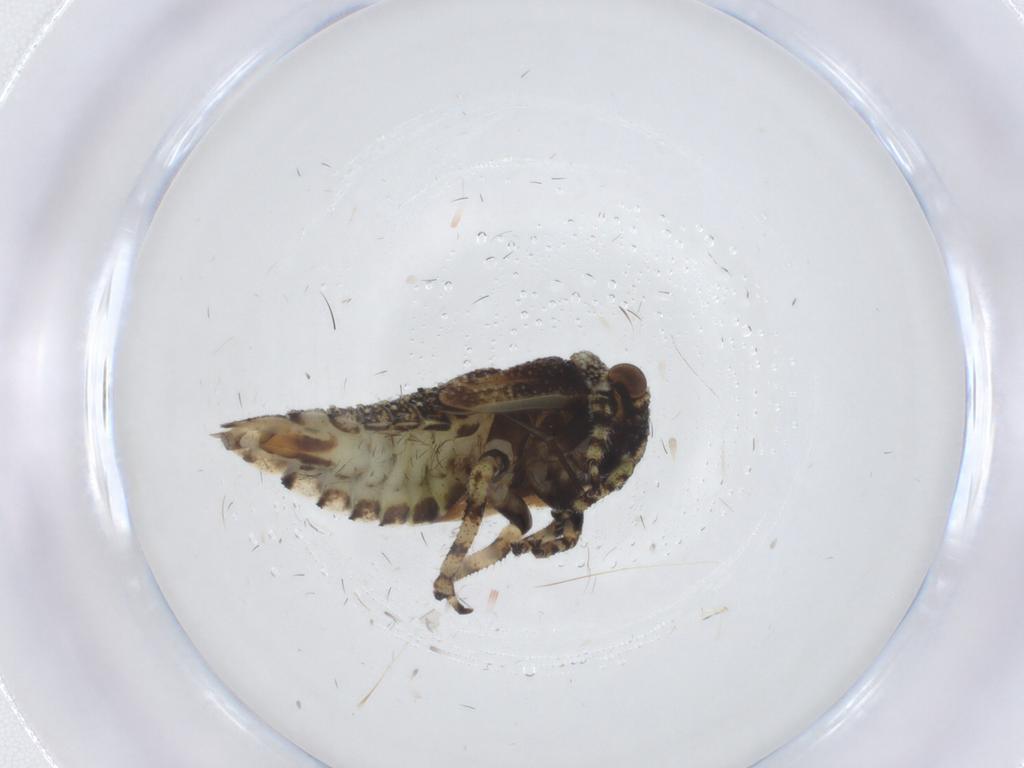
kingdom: Animalia
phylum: Arthropoda
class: Insecta
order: Hemiptera
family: Cicadellidae
